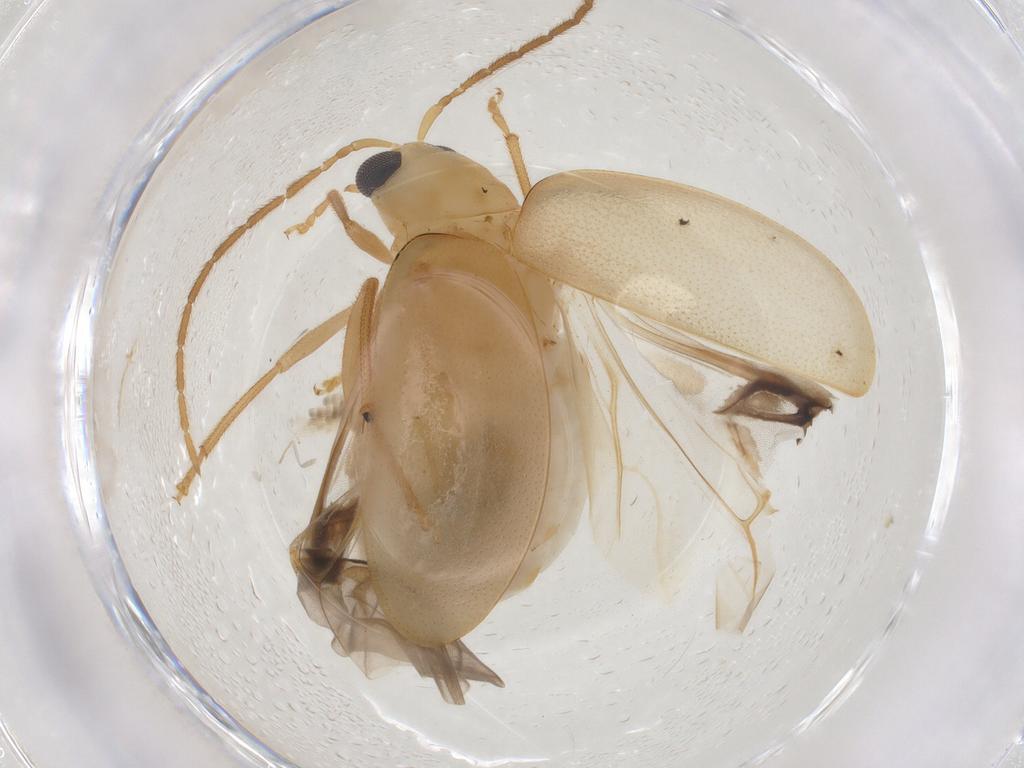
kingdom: Animalia
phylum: Arthropoda
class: Insecta
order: Coleoptera
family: Chrysomelidae
